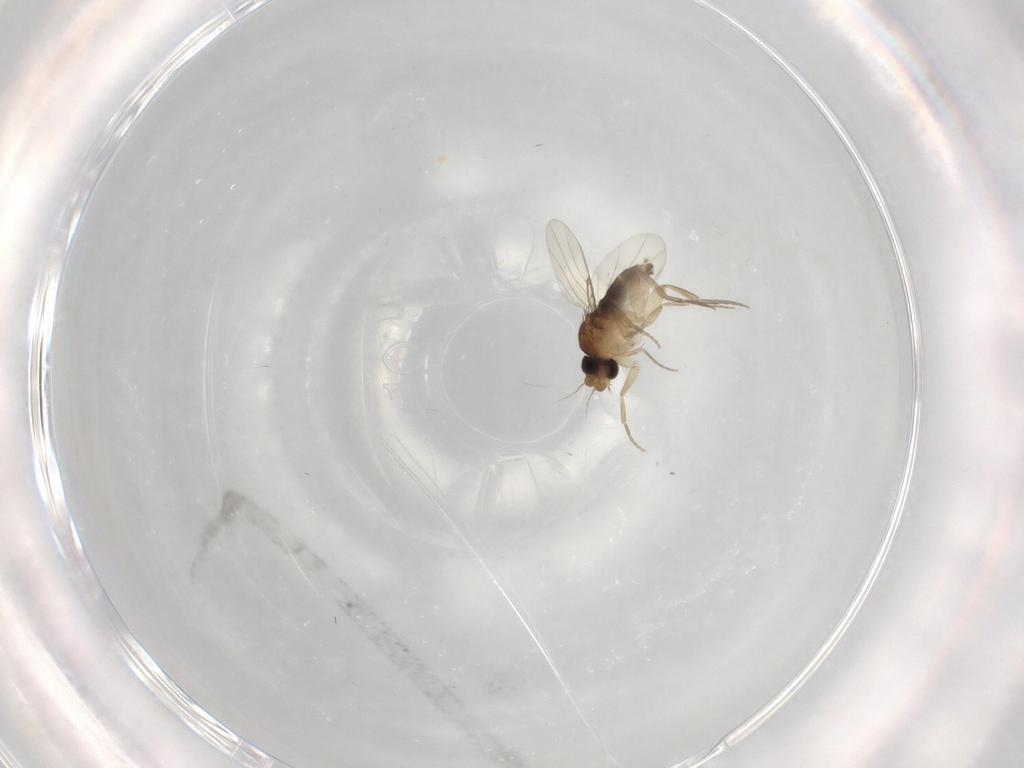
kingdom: Animalia
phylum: Arthropoda
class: Insecta
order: Diptera
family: Phoridae
